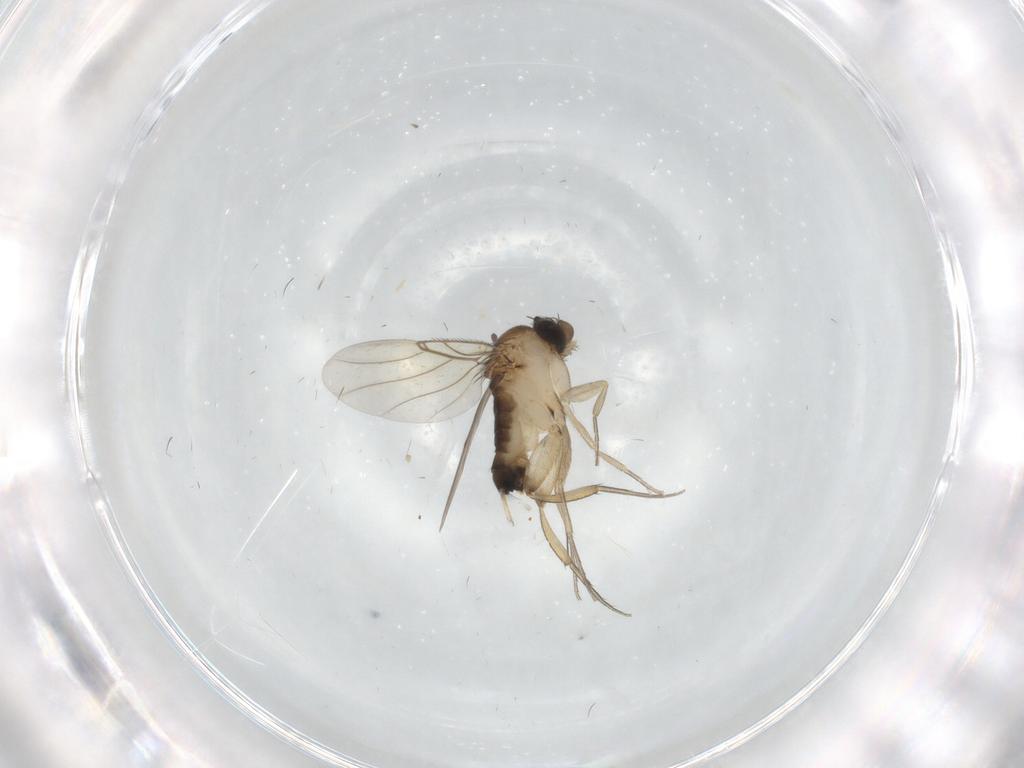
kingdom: Animalia
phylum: Arthropoda
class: Insecta
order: Diptera
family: Phoridae
